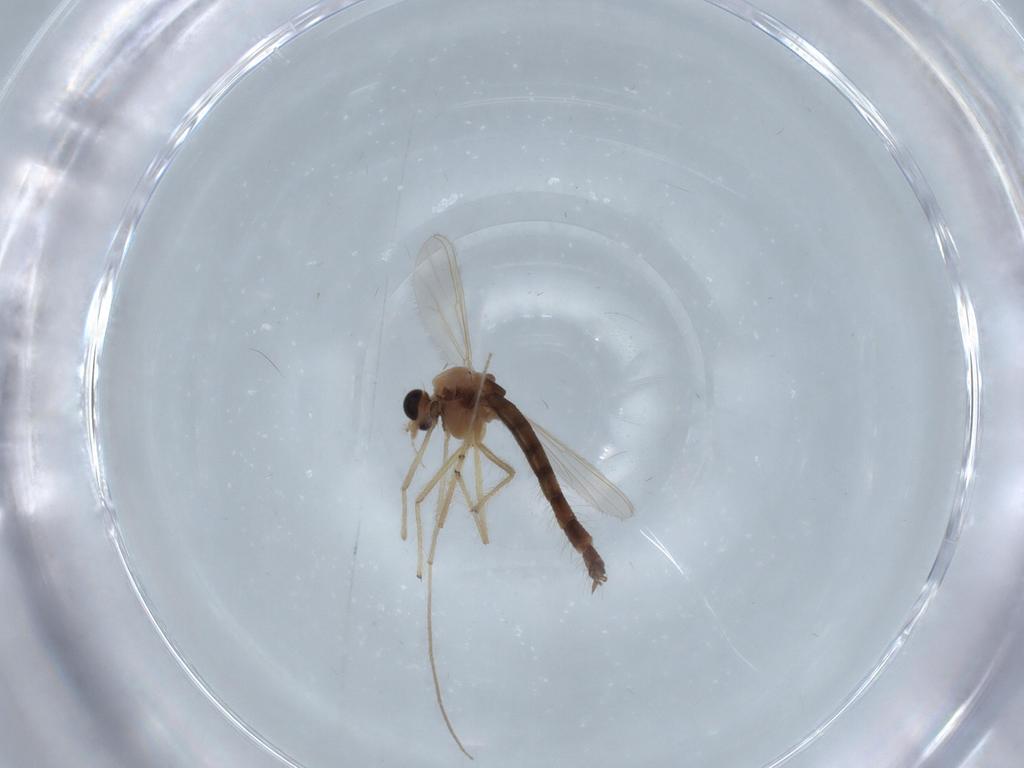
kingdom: Animalia
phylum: Arthropoda
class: Insecta
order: Diptera
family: Chironomidae
